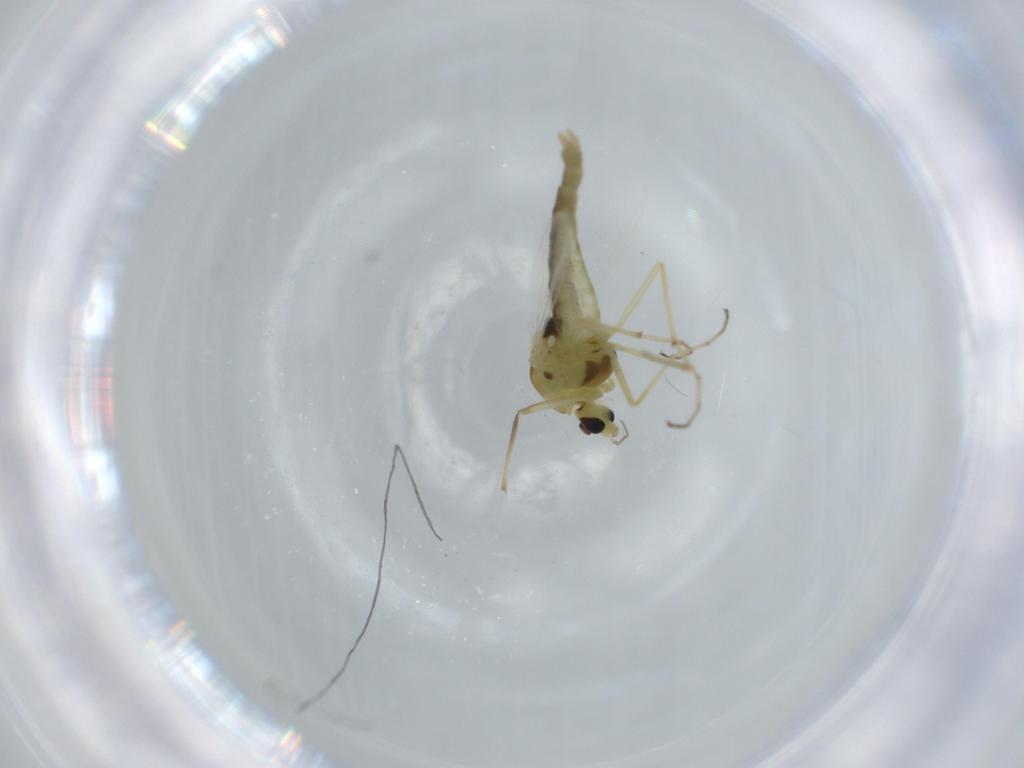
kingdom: Animalia
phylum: Arthropoda
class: Insecta
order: Diptera
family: Chironomidae
